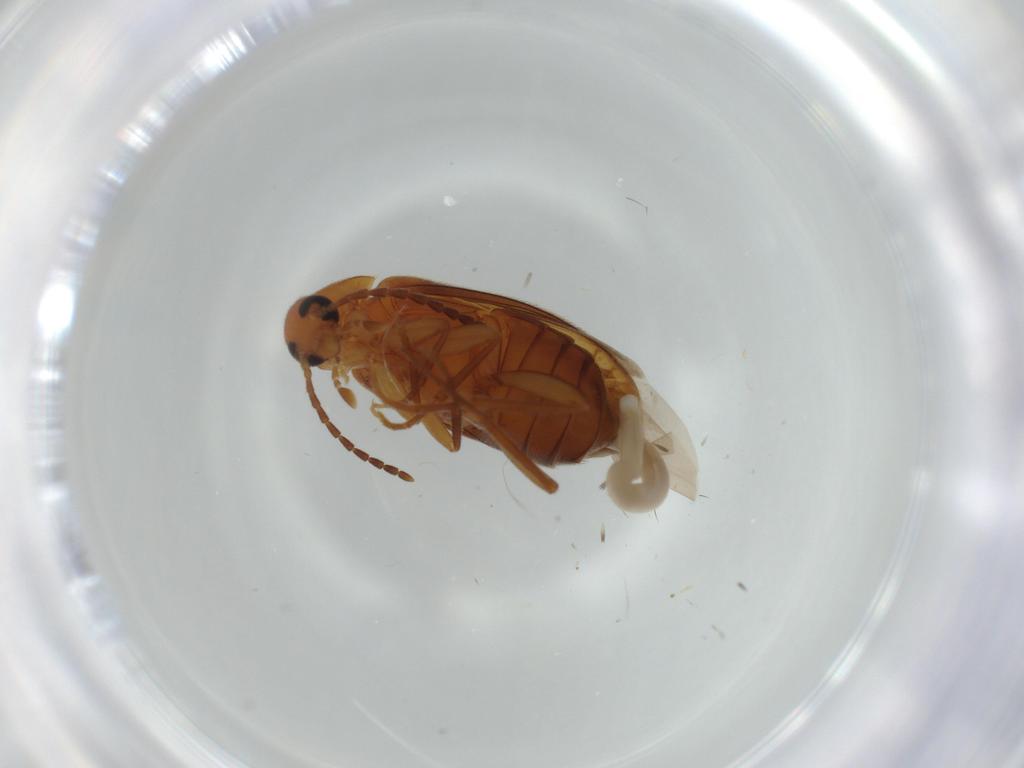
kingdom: Animalia
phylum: Arthropoda
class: Insecta
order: Coleoptera
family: Scraptiidae
